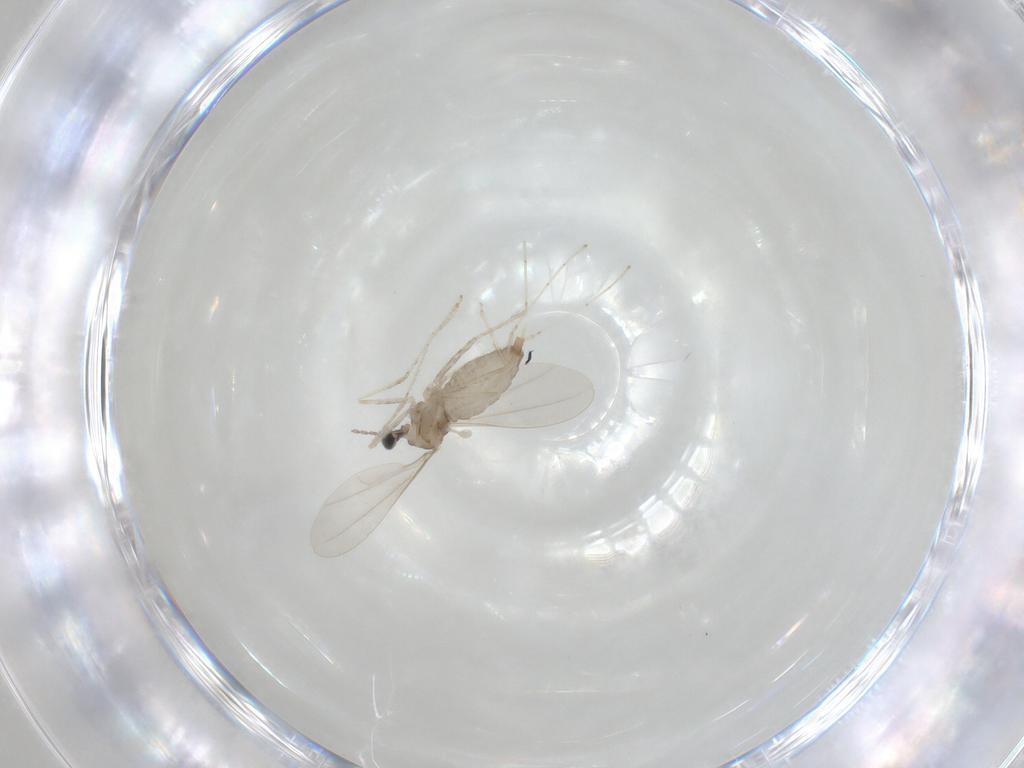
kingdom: Animalia
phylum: Arthropoda
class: Insecta
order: Diptera
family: Cecidomyiidae
